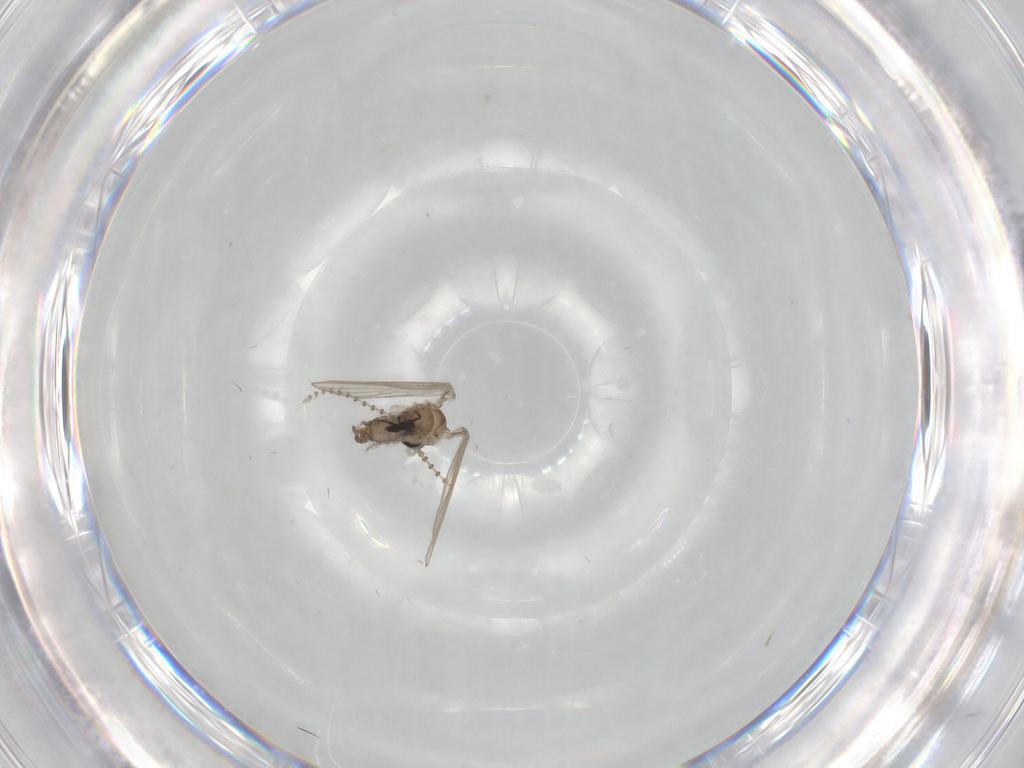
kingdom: Animalia
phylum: Arthropoda
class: Insecta
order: Diptera
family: Psychodidae
